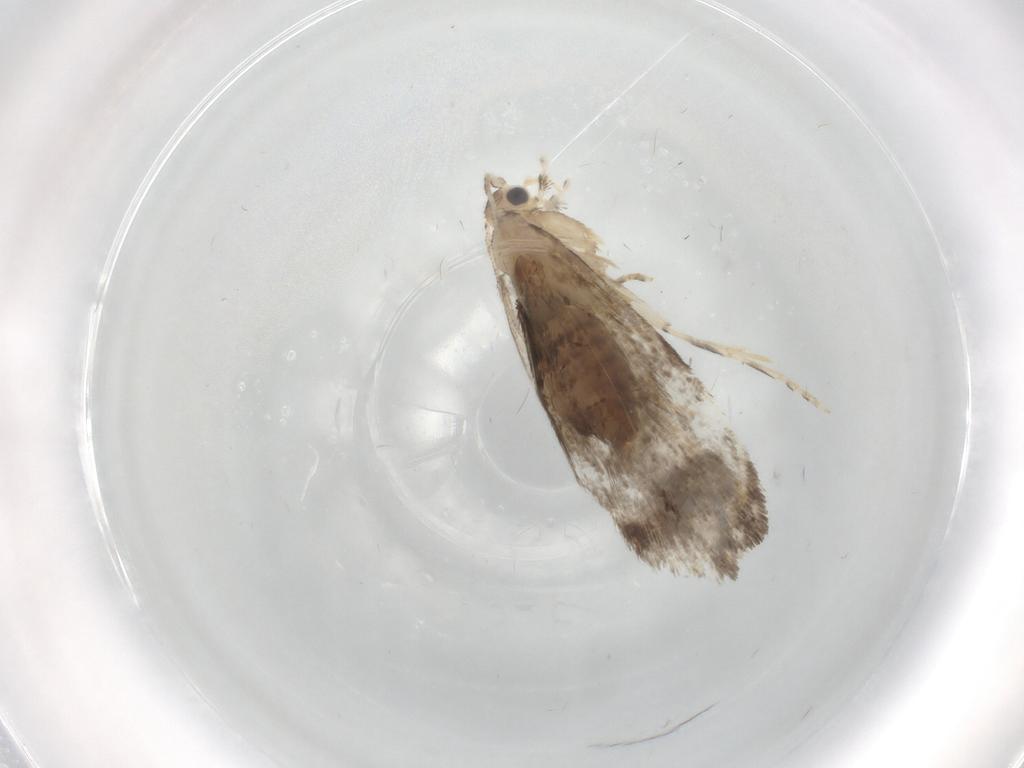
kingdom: Animalia
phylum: Arthropoda
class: Insecta
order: Lepidoptera
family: Tineidae
